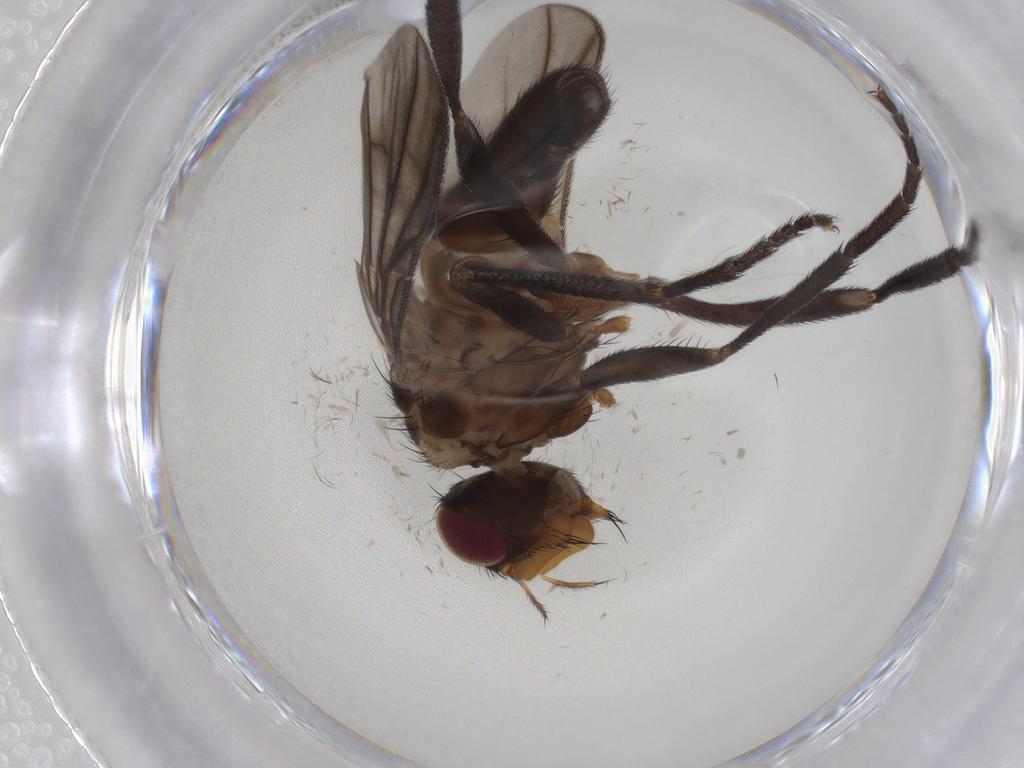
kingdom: Animalia
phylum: Arthropoda
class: Insecta
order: Diptera
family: Calliphoridae
